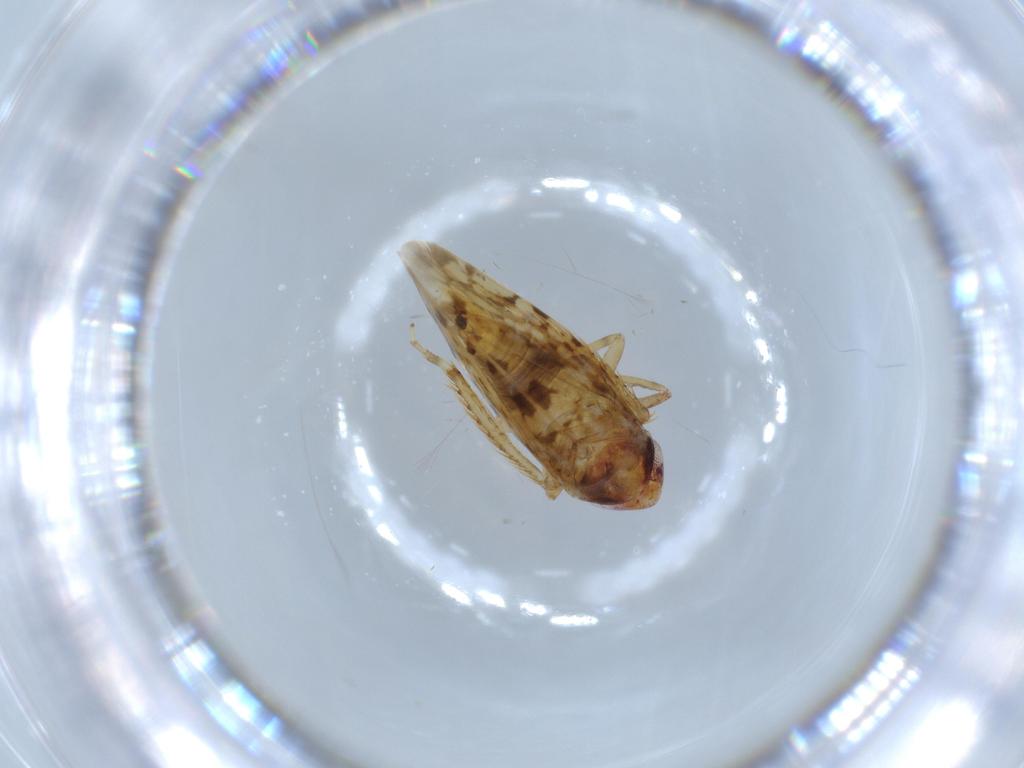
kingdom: Animalia
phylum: Arthropoda
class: Insecta
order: Hemiptera
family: Cicadellidae
